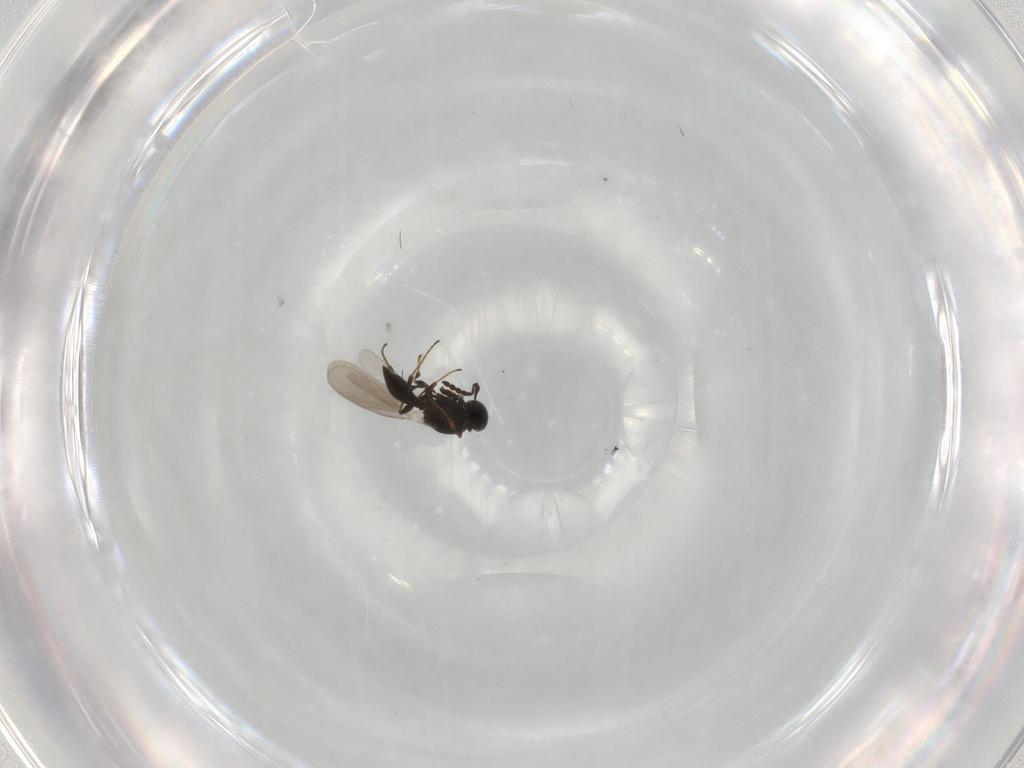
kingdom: Animalia
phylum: Arthropoda
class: Insecta
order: Hymenoptera
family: Platygastridae
